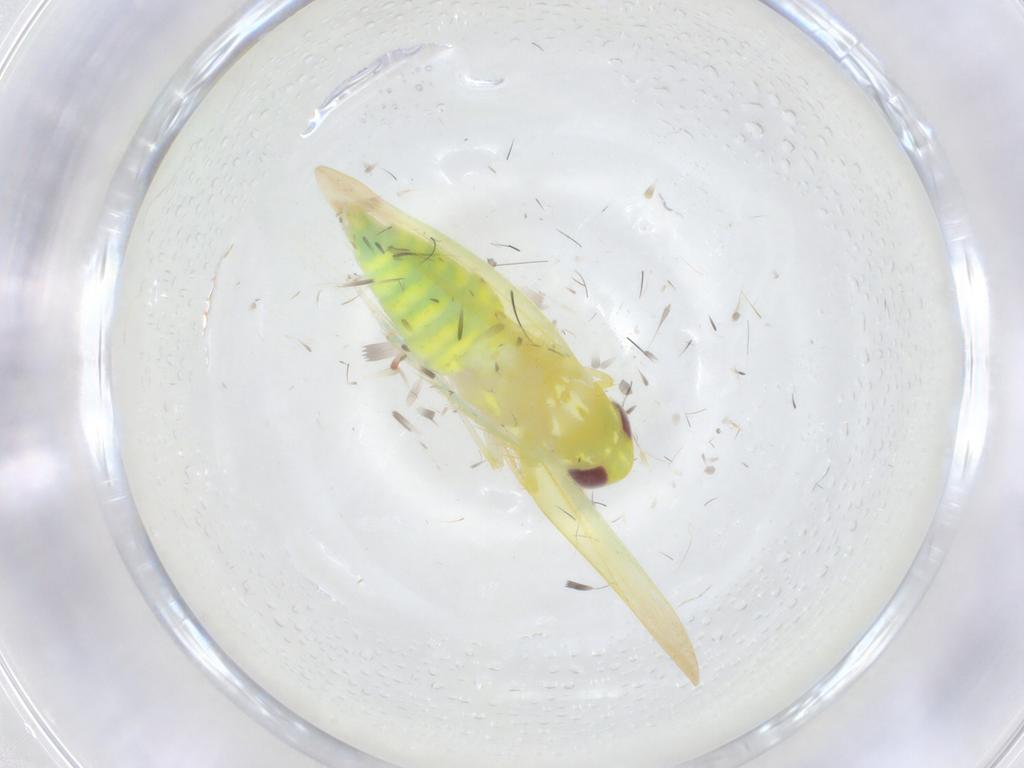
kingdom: Animalia
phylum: Arthropoda
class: Insecta
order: Hemiptera
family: Cicadellidae
